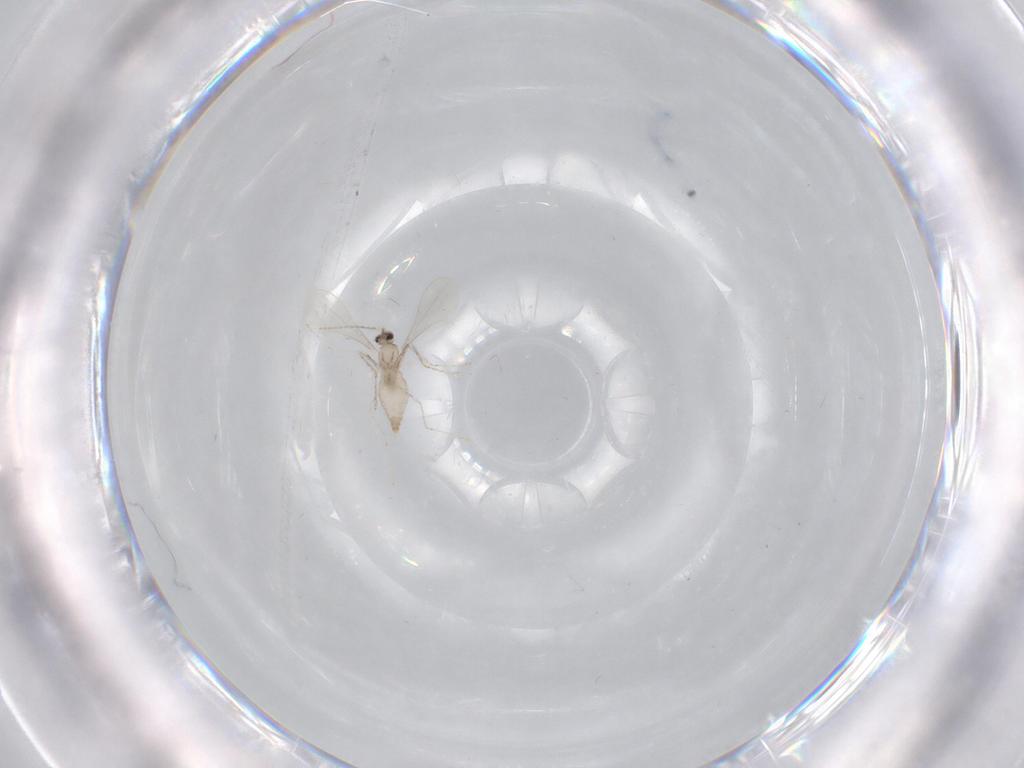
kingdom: Animalia
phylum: Arthropoda
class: Insecta
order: Diptera
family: Cecidomyiidae
